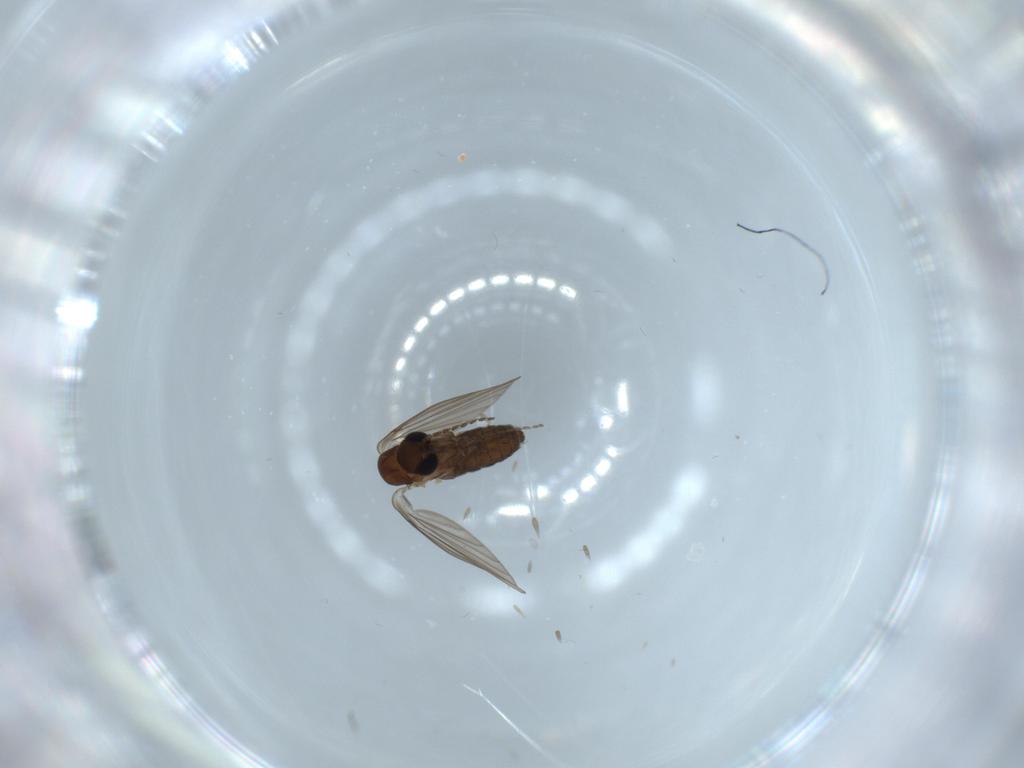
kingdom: Animalia
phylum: Arthropoda
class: Insecta
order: Diptera
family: Psychodidae
